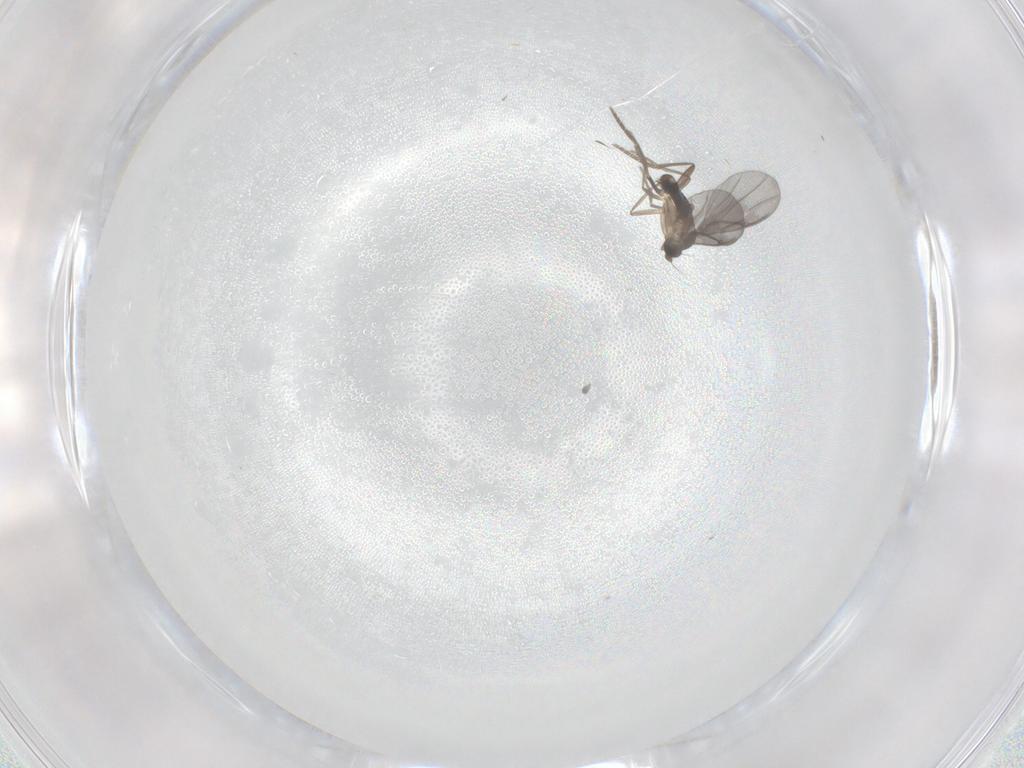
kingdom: Animalia
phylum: Arthropoda
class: Insecta
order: Diptera
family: Phoridae
